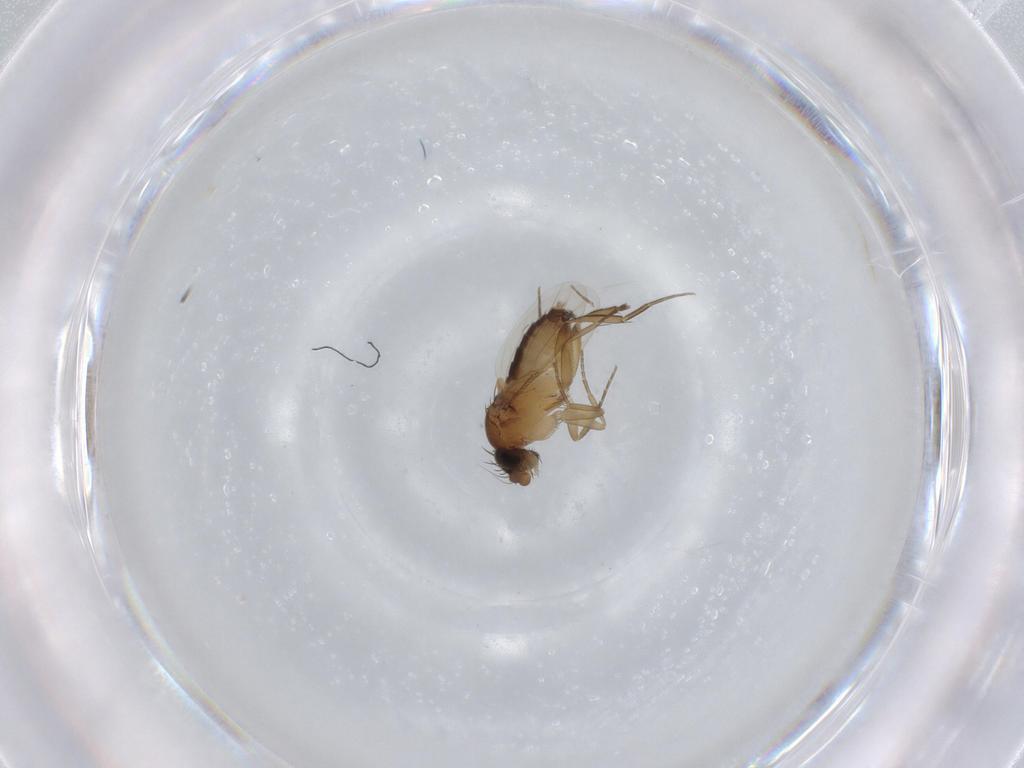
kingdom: Animalia
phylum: Arthropoda
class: Insecta
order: Diptera
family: Phoridae
